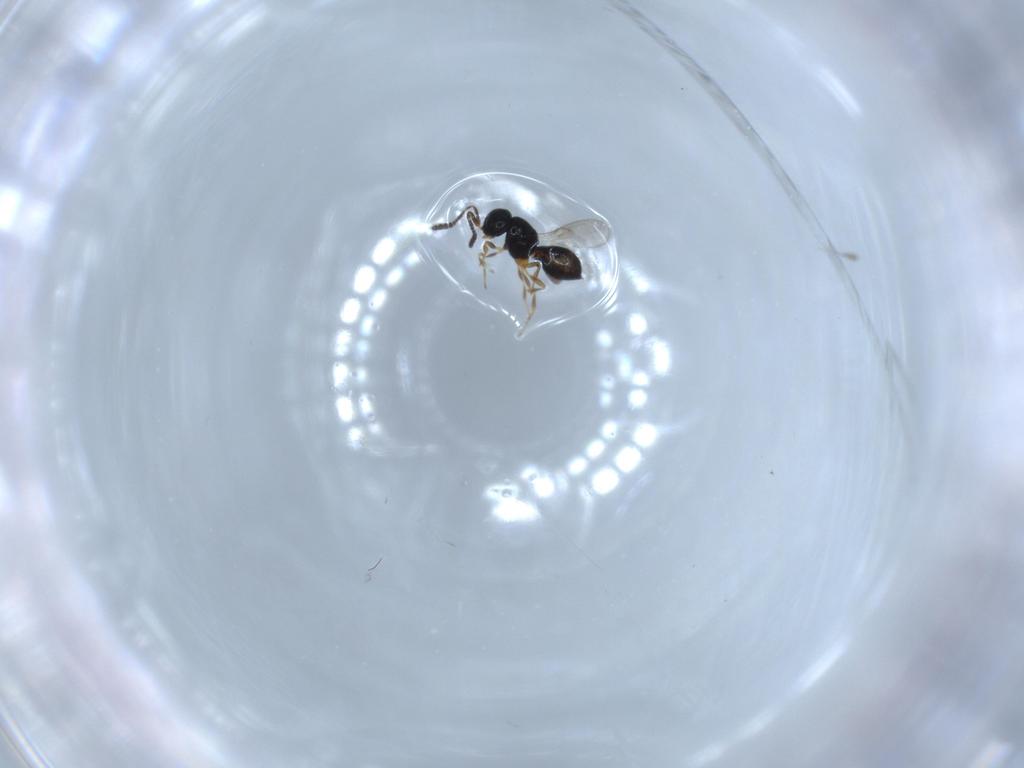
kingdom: Animalia
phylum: Arthropoda
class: Insecta
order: Hymenoptera
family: Scelionidae
